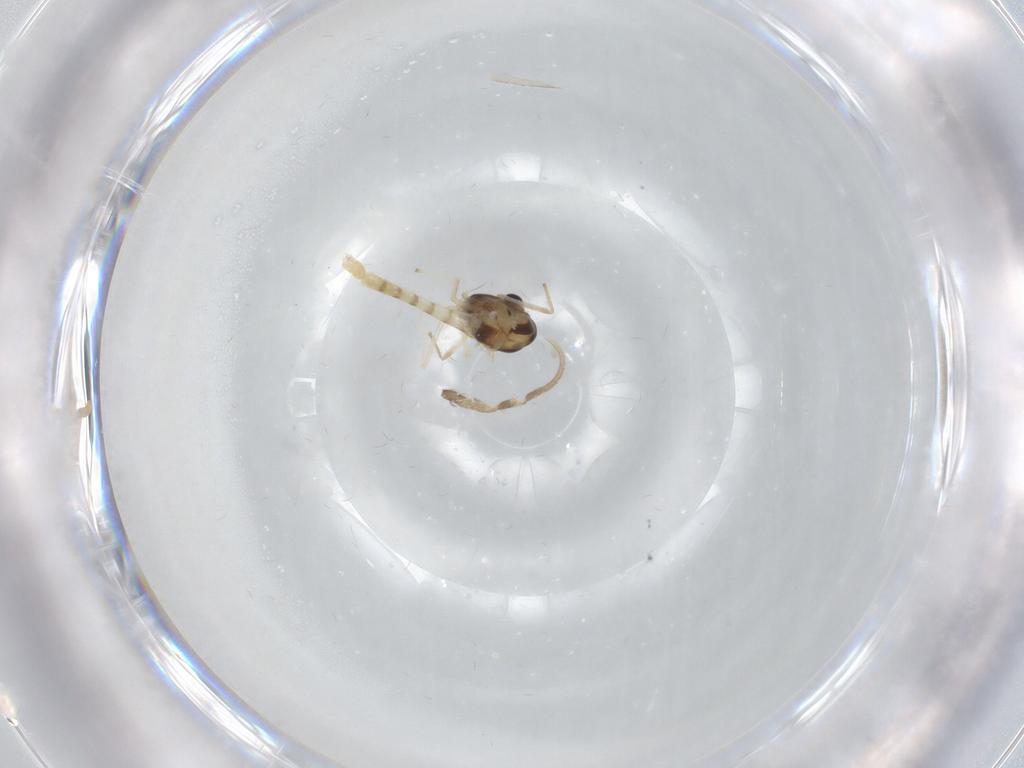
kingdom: Animalia
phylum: Arthropoda
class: Insecta
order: Diptera
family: Chironomidae
